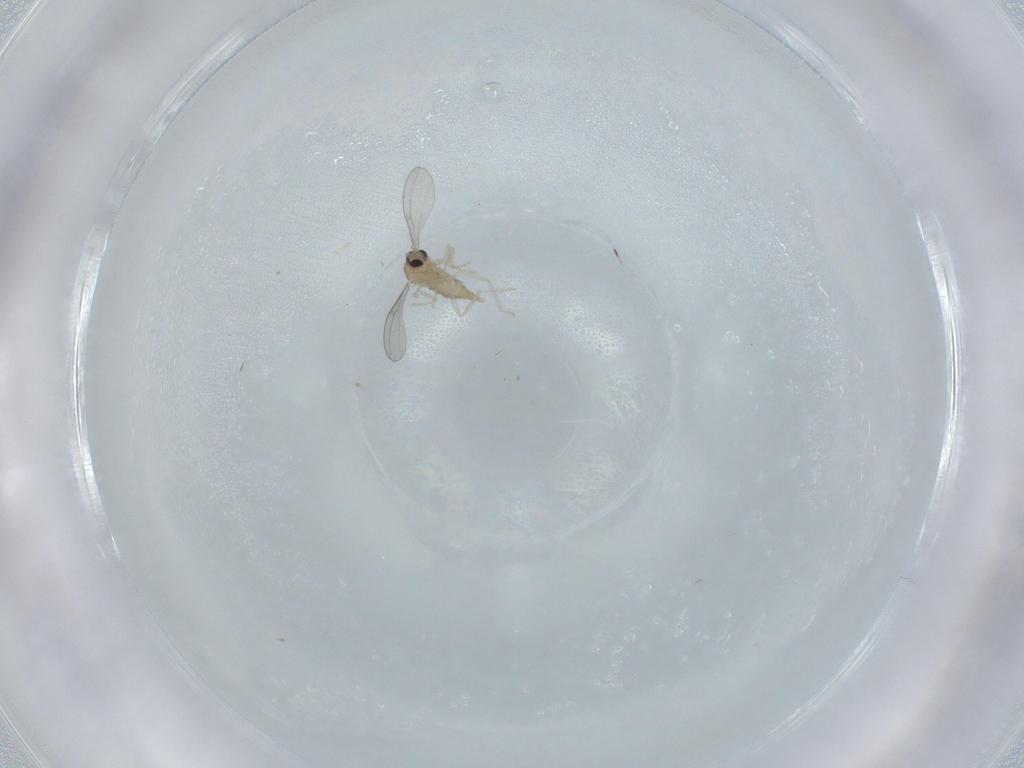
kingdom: Animalia
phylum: Arthropoda
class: Insecta
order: Diptera
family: Cecidomyiidae
